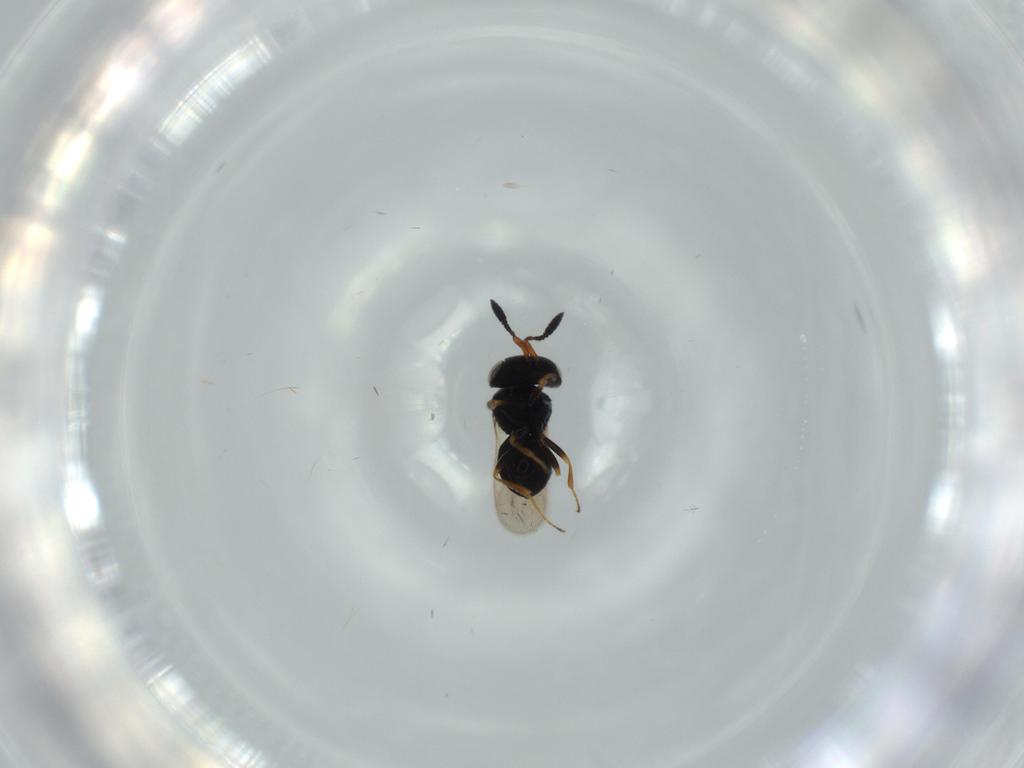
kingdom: Animalia
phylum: Arthropoda
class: Insecta
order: Hymenoptera
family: Scelionidae
